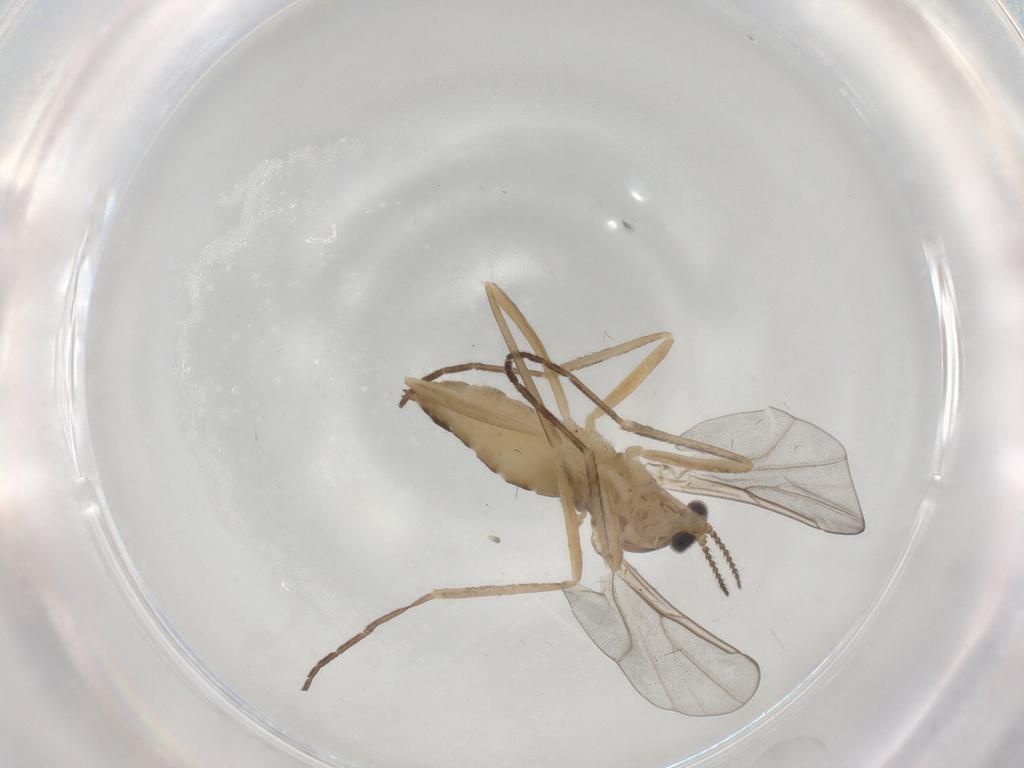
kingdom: Animalia
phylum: Arthropoda
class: Insecta
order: Diptera
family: Cecidomyiidae
